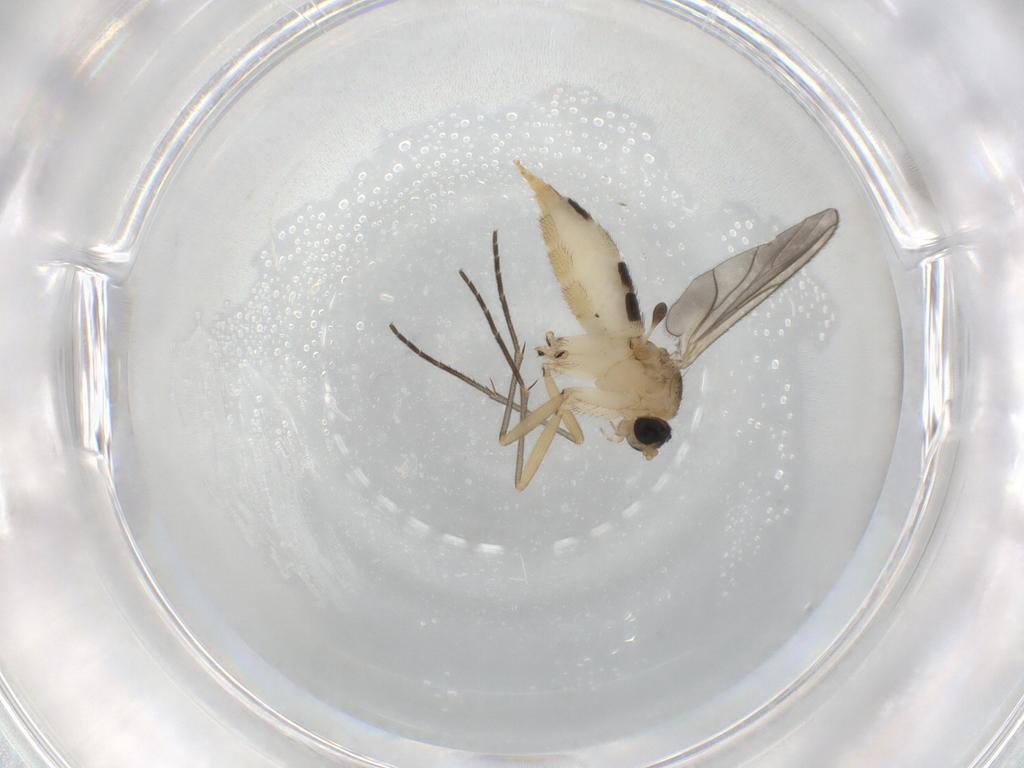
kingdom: Animalia
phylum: Arthropoda
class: Insecta
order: Diptera
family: Sciaridae
